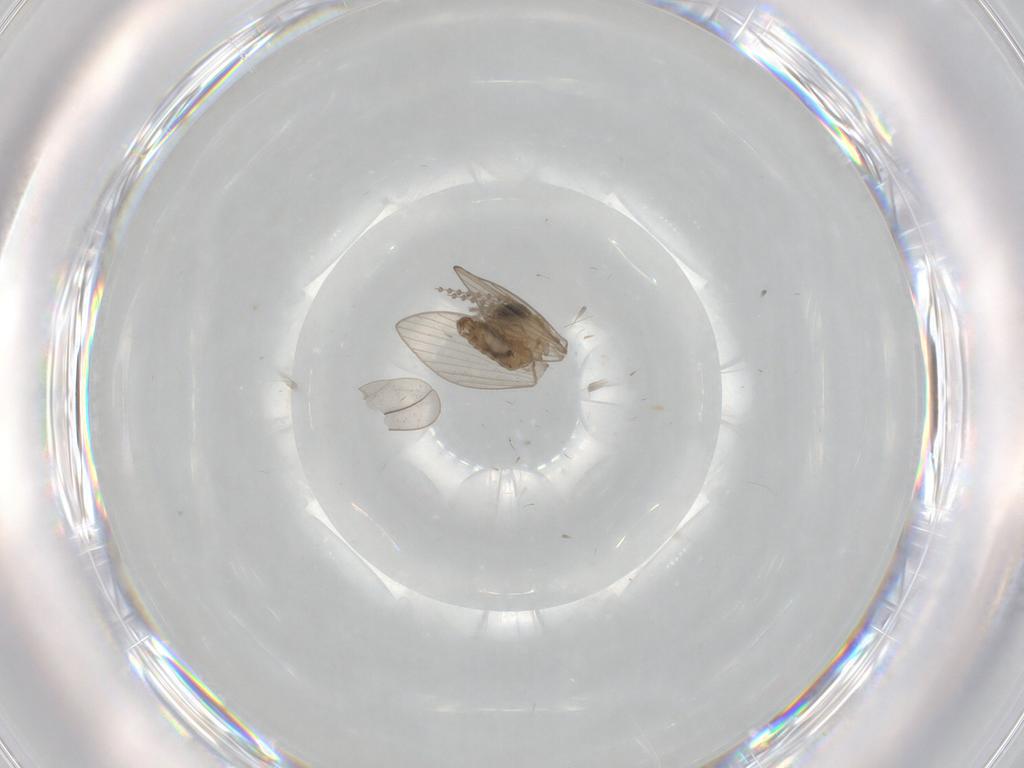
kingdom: Animalia
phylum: Arthropoda
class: Insecta
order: Diptera
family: Psychodidae
